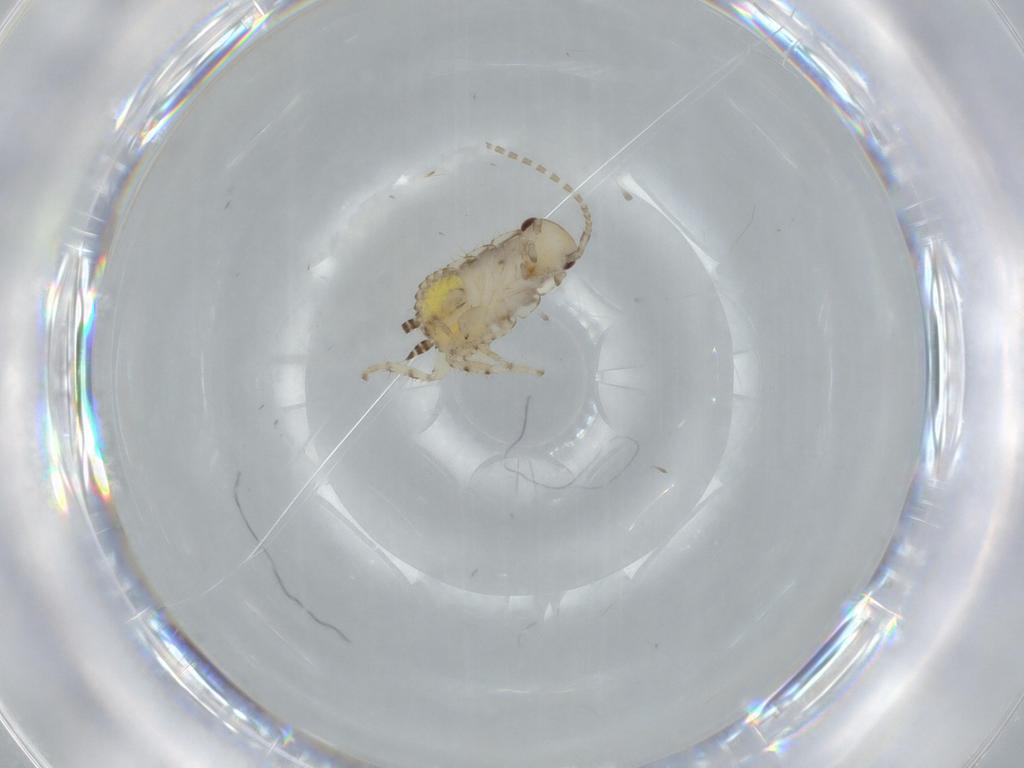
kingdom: Animalia
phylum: Arthropoda
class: Insecta
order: Blattodea
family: Ectobiidae
